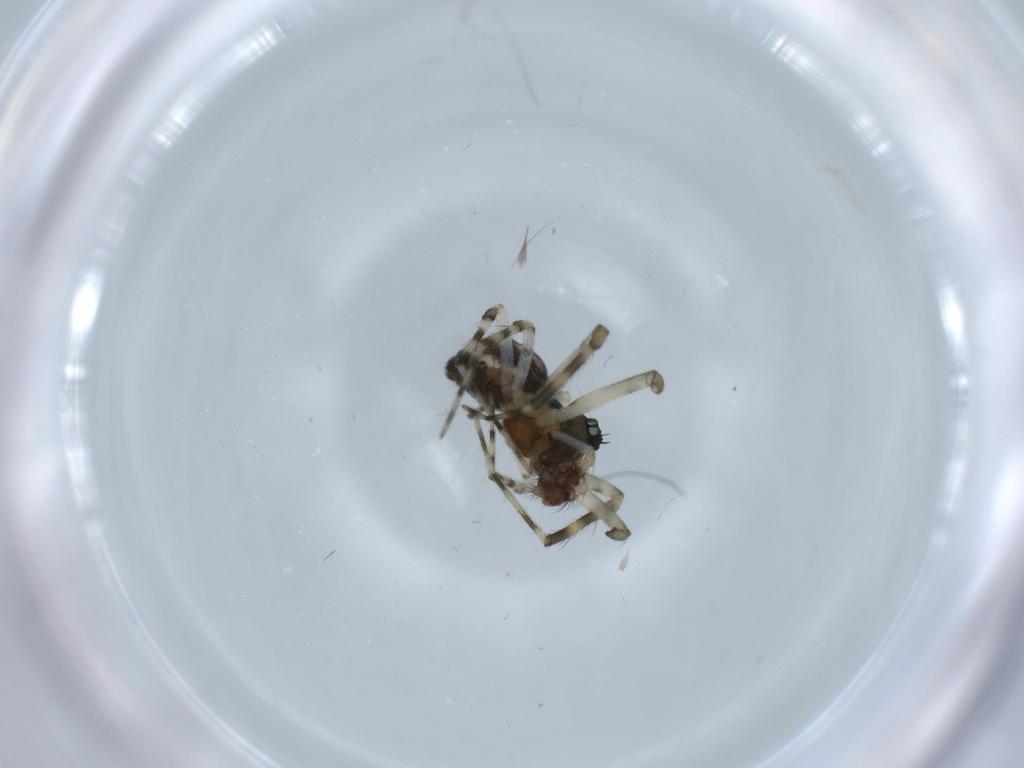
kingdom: Animalia
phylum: Arthropoda
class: Arachnida
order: Araneae
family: Theridiidae
